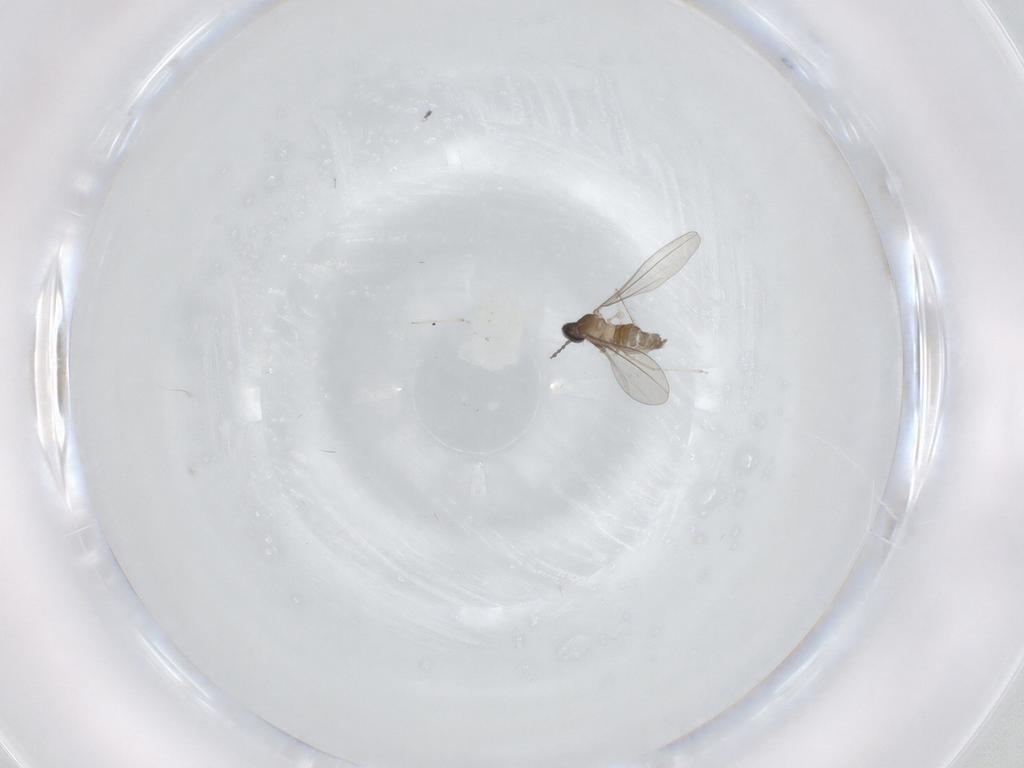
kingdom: Animalia
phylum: Arthropoda
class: Insecta
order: Diptera
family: Cecidomyiidae
